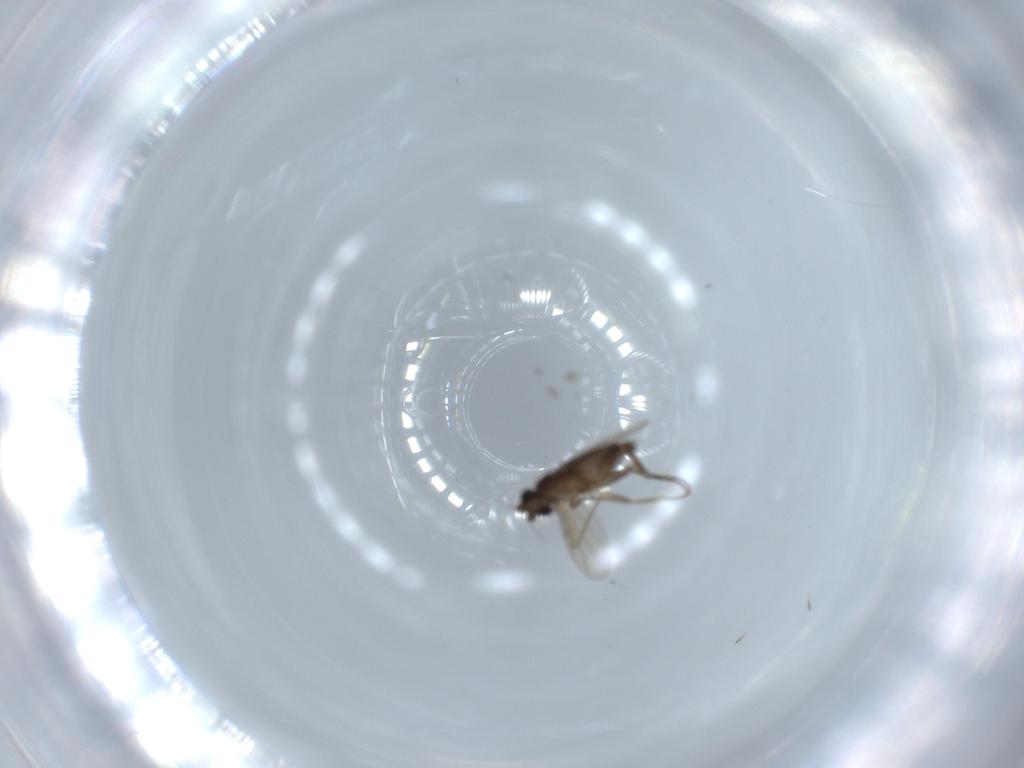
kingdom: Animalia
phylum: Arthropoda
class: Insecta
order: Diptera
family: Phoridae
